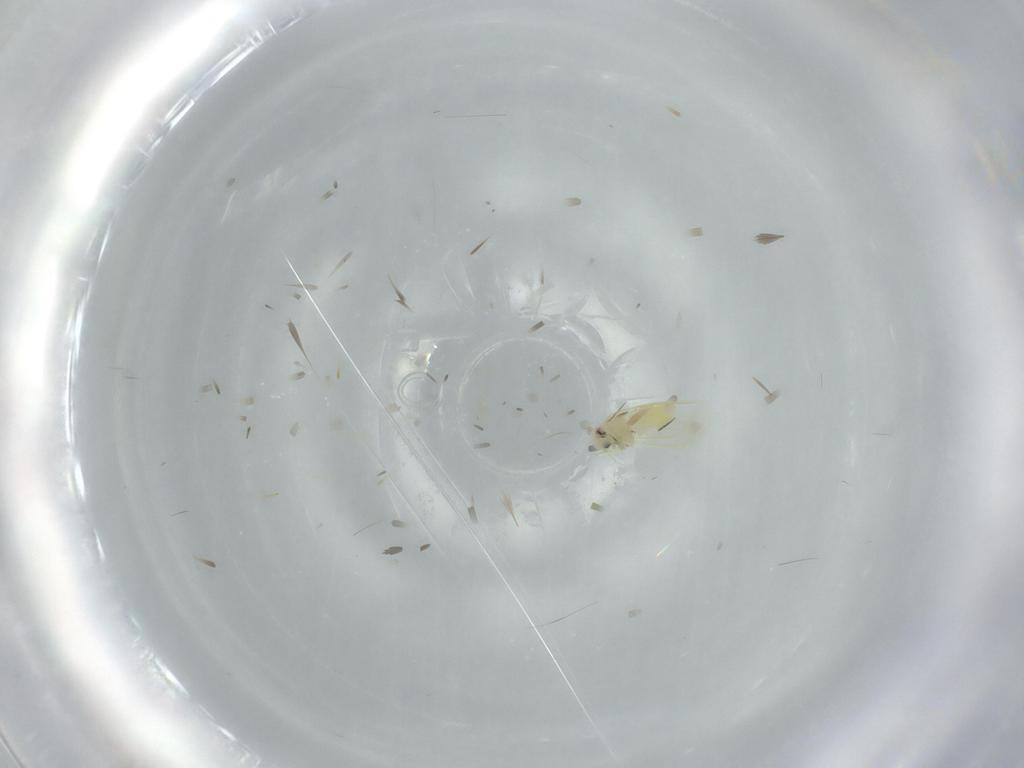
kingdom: Animalia
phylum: Arthropoda
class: Insecta
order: Hemiptera
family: Aleyrodidae
